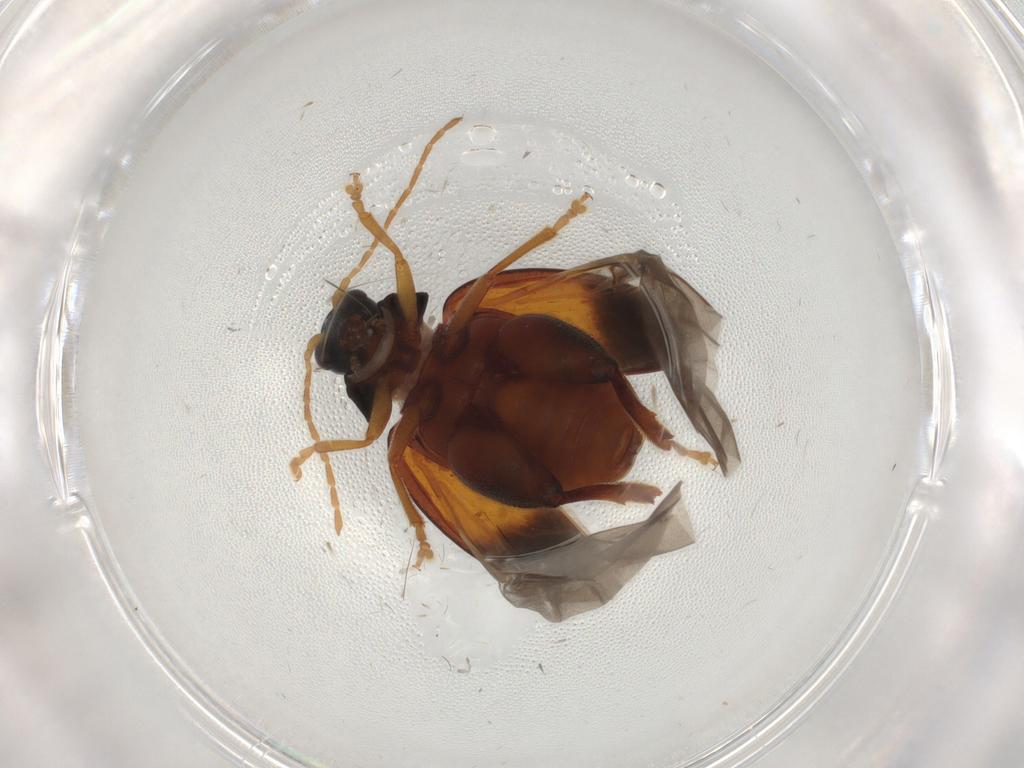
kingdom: Animalia
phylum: Arthropoda
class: Insecta
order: Coleoptera
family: Chrysomelidae
